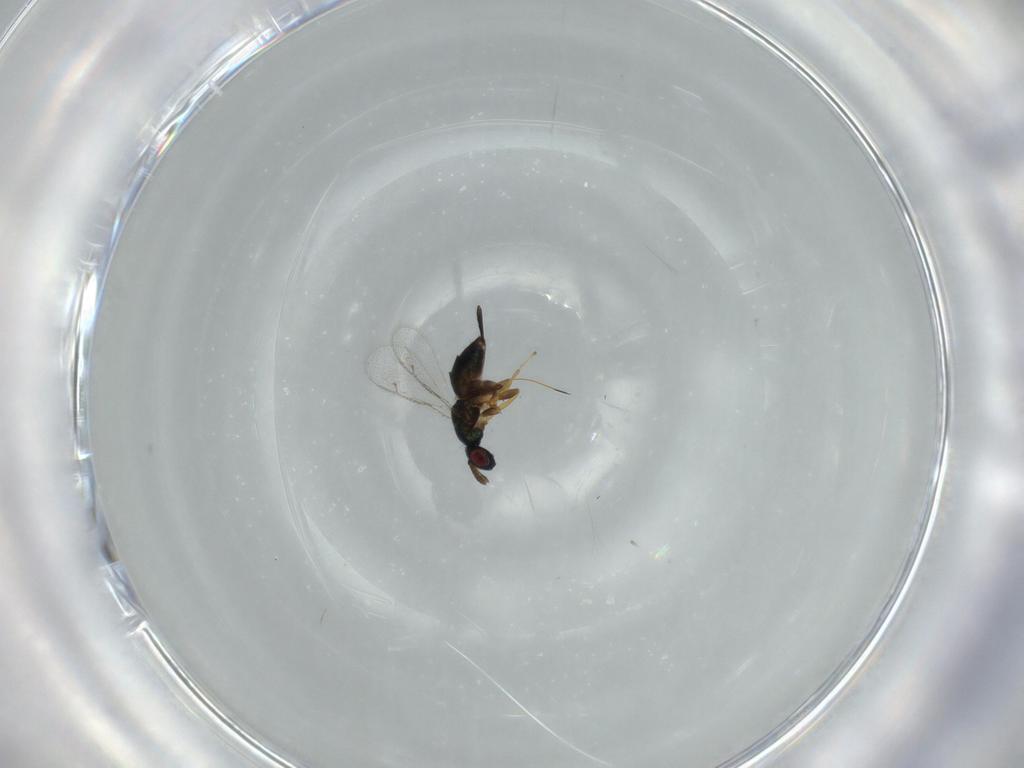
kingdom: Animalia
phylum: Arthropoda
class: Insecta
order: Hymenoptera
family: Torymidae
